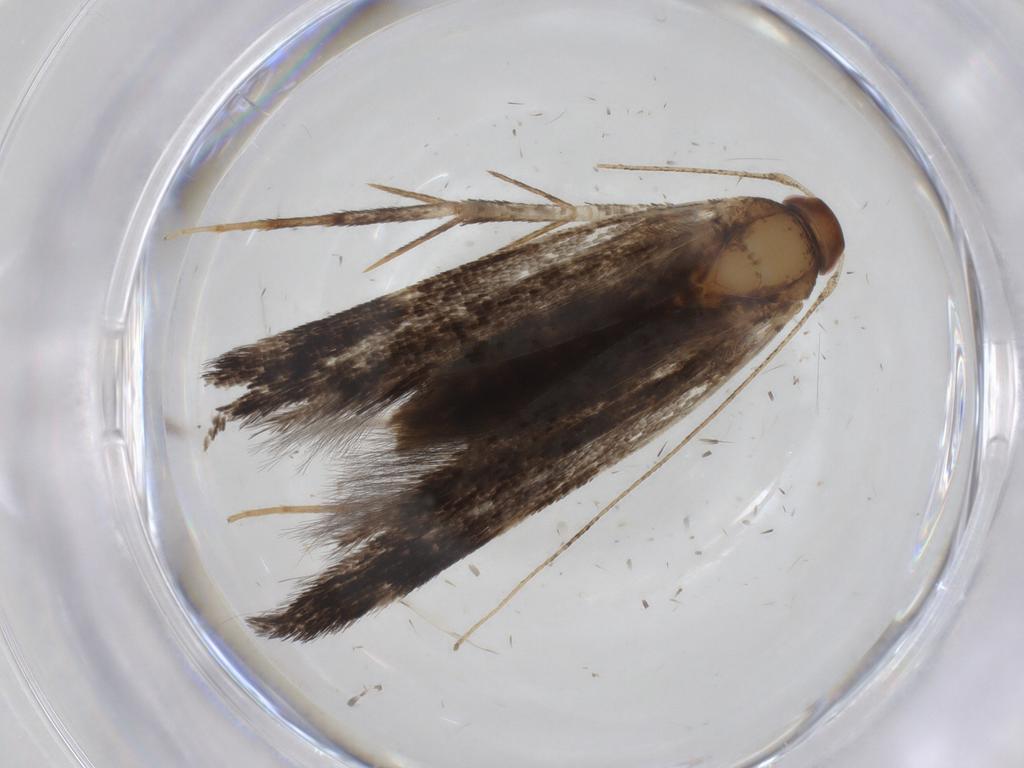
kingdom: Animalia
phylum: Arthropoda
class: Insecta
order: Lepidoptera
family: Cosmopterigidae
